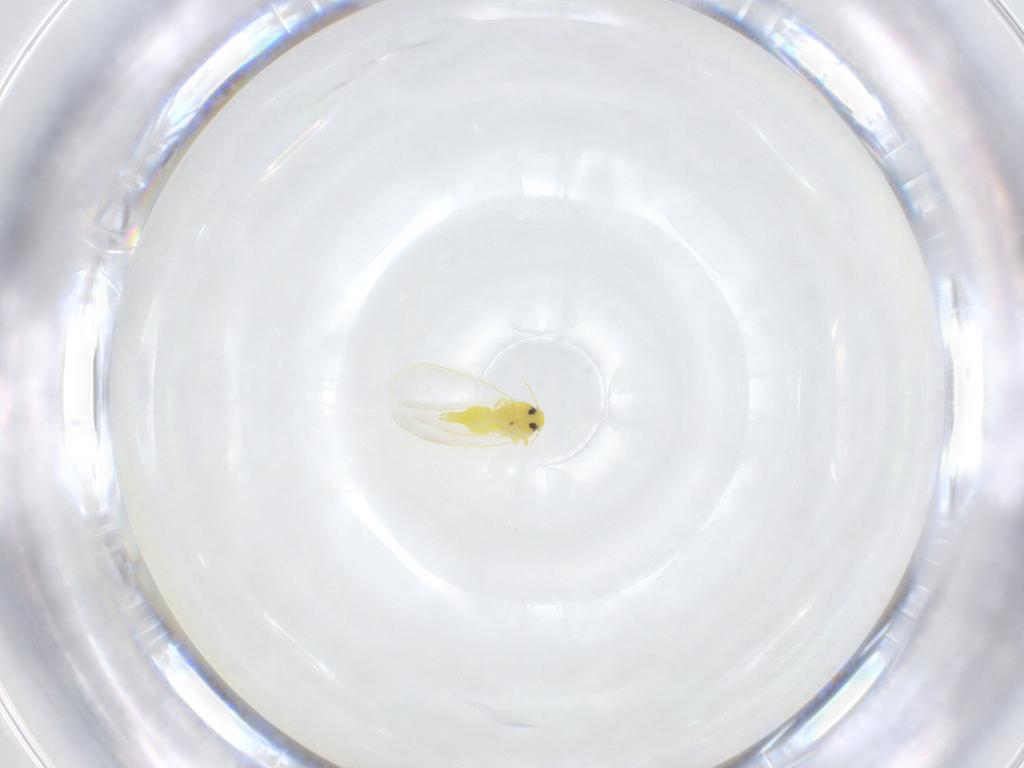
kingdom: Animalia
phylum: Arthropoda
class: Insecta
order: Hemiptera
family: Aleyrodidae
